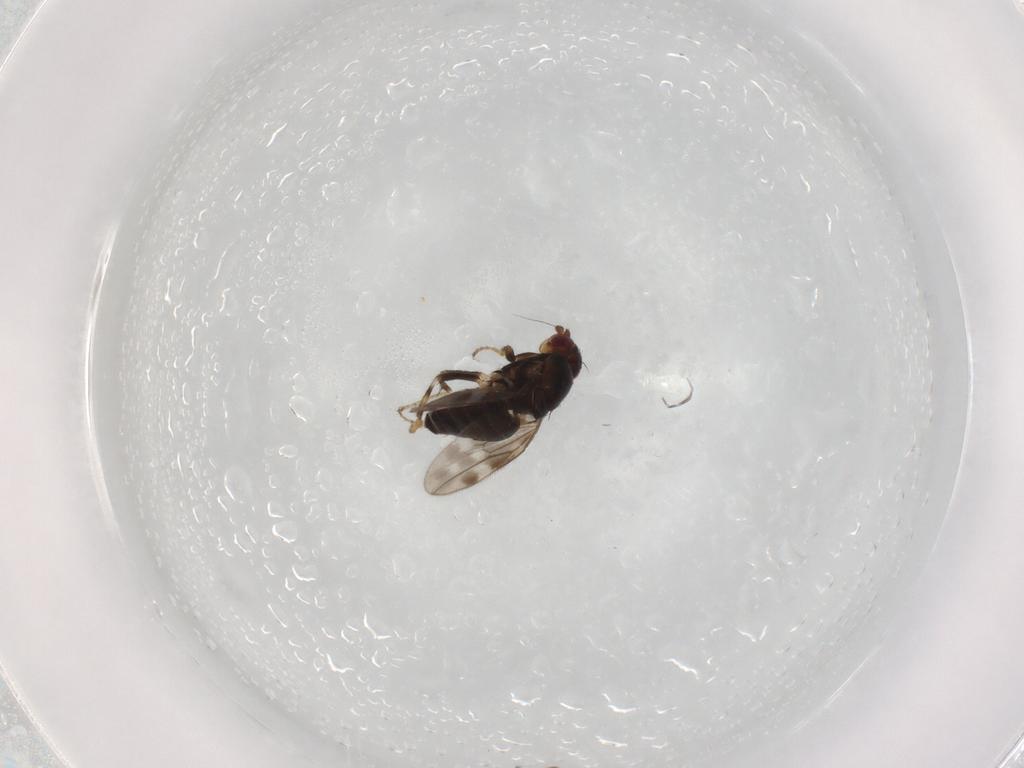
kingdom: Animalia
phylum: Arthropoda
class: Insecta
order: Diptera
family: Sphaeroceridae
